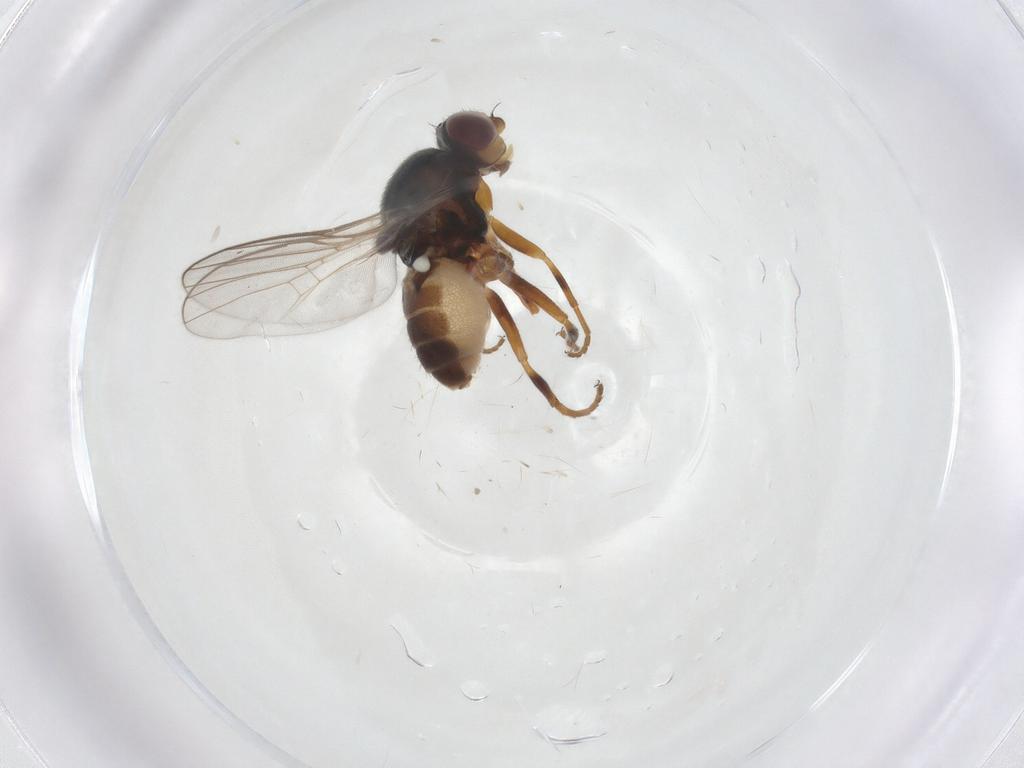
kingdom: Animalia
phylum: Arthropoda
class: Insecta
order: Diptera
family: Chloropidae
